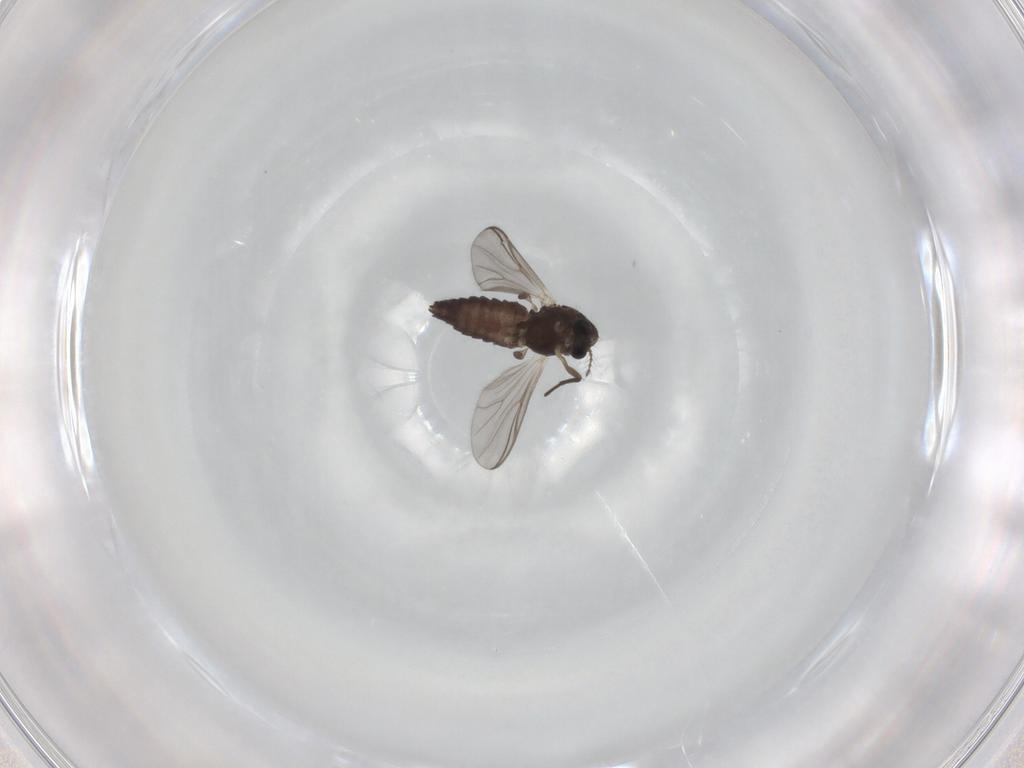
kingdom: Animalia
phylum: Arthropoda
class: Insecta
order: Diptera
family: Chironomidae
